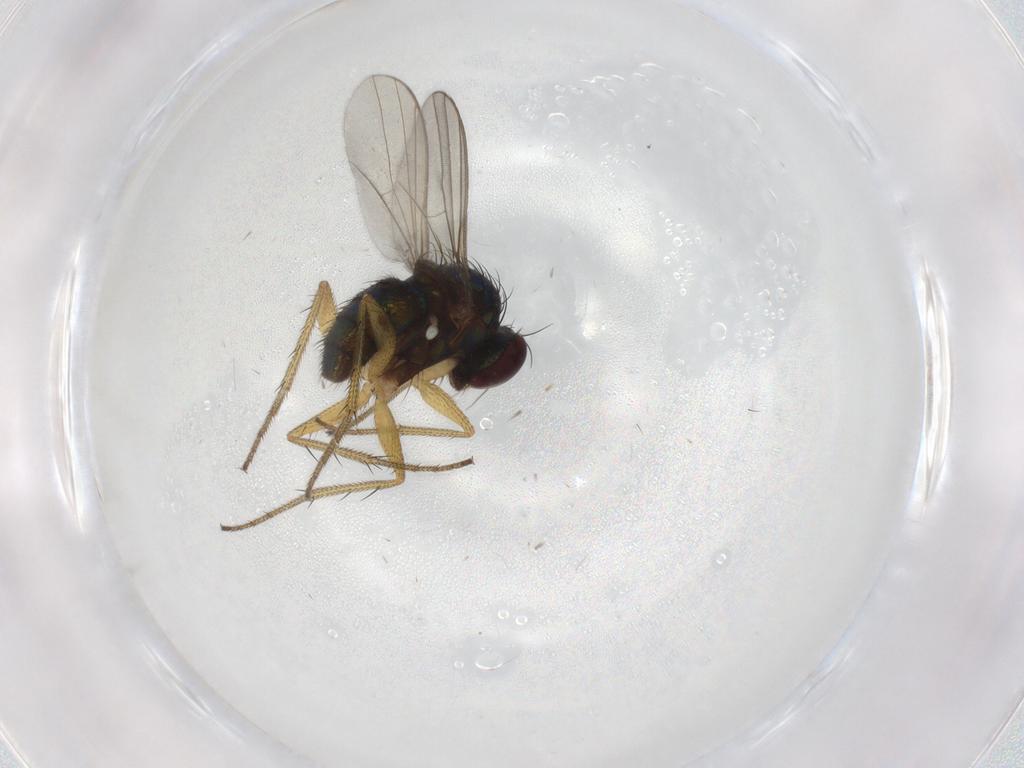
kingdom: Animalia
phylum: Arthropoda
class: Insecta
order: Diptera
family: Dolichopodidae
